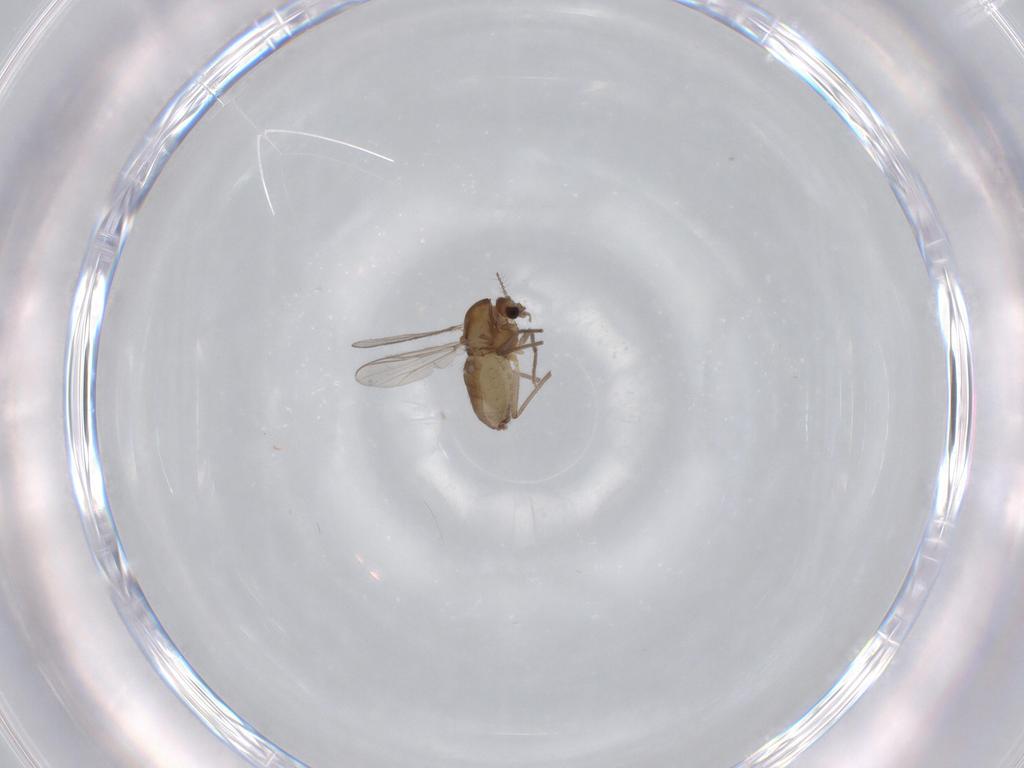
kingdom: Animalia
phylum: Arthropoda
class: Insecta
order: Diptera
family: Chironomidae
